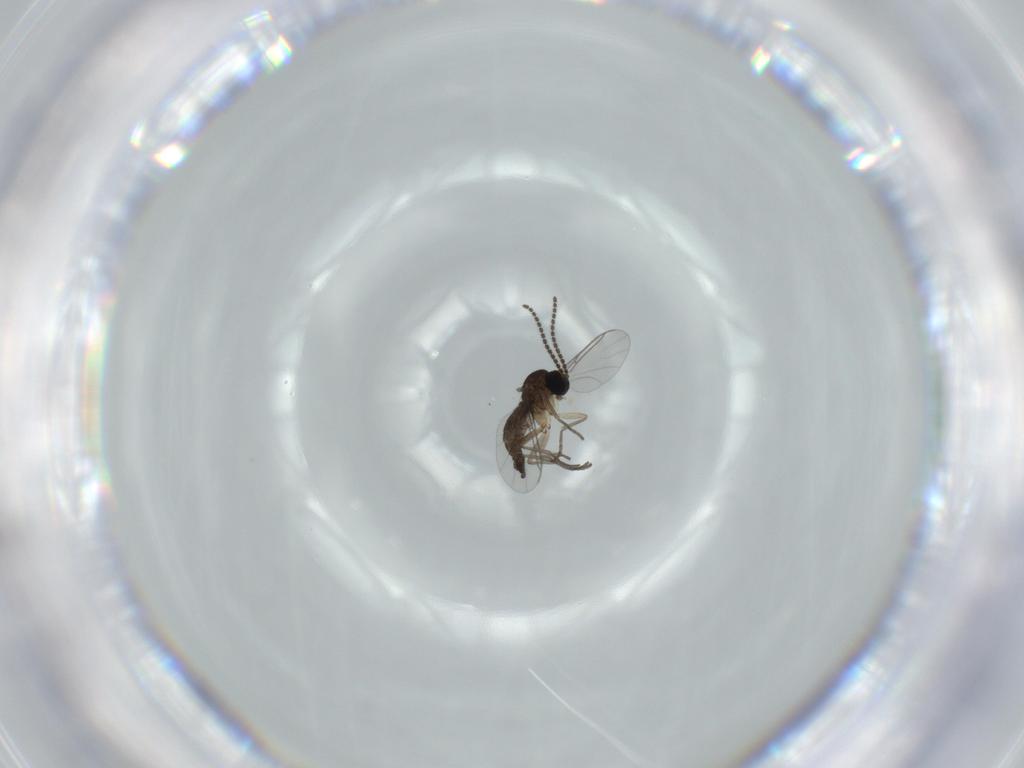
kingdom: Animalia
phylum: Arthropoda
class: Insecta
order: Diptera
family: Sciaridae
